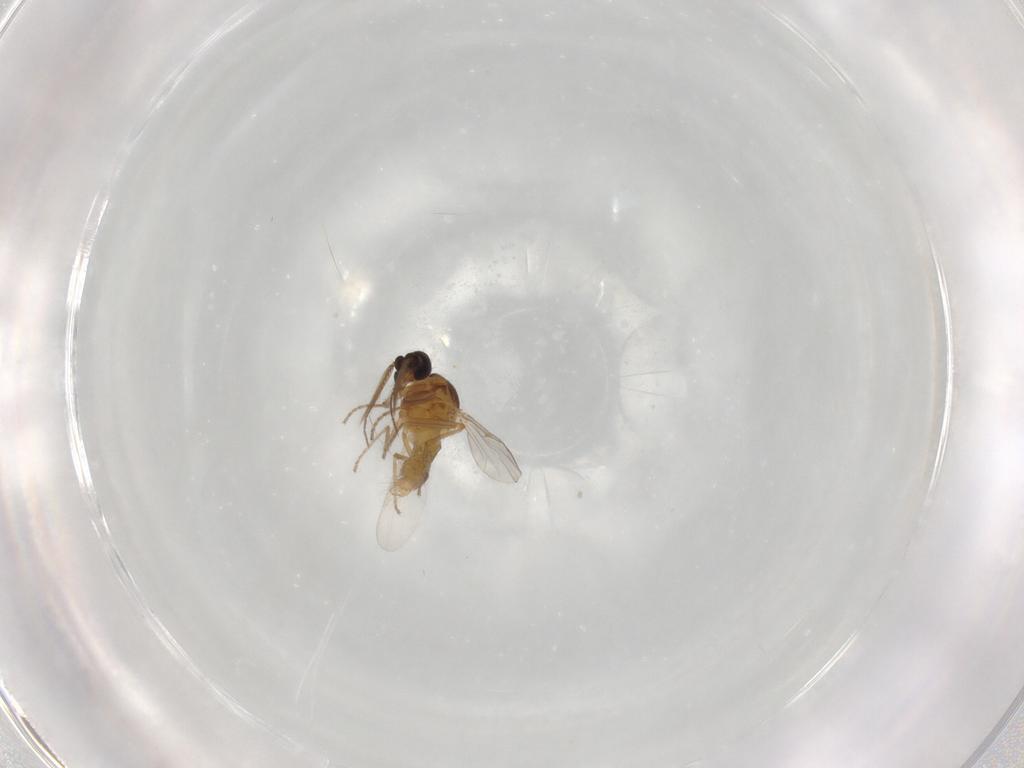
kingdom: Animalia
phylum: Arthropoda
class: Insecta
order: Diptera
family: Ceratopogonidae
